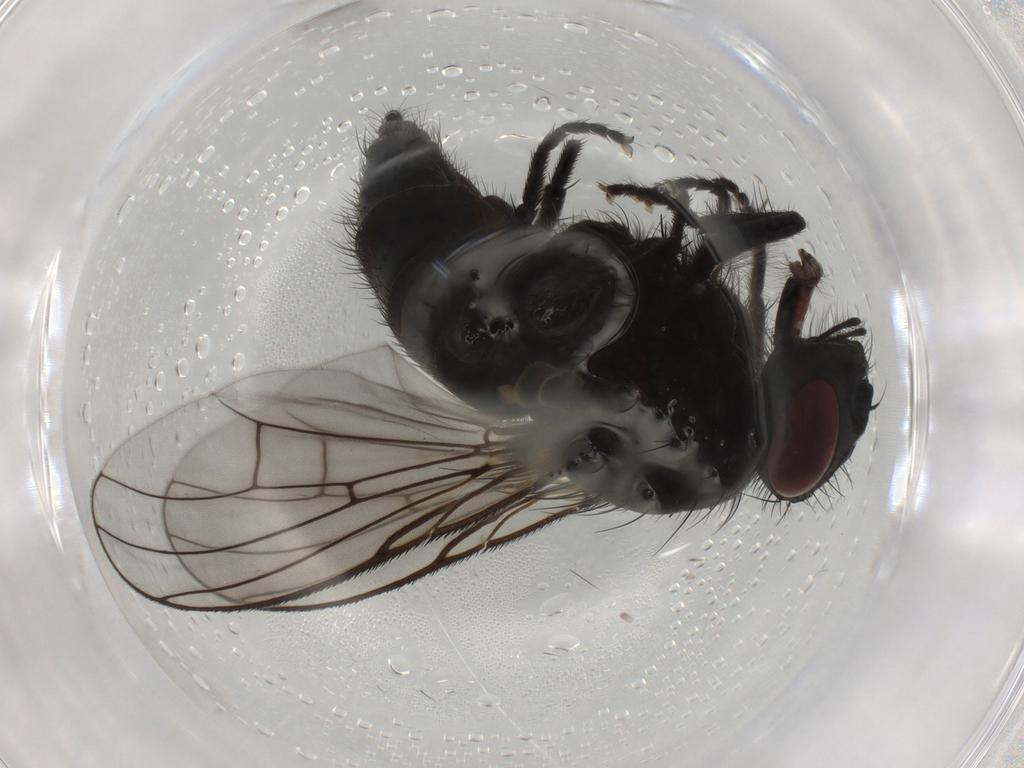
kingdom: Animalia
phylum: Arthropoda
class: Insecta
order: Diptera
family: Muscidae
